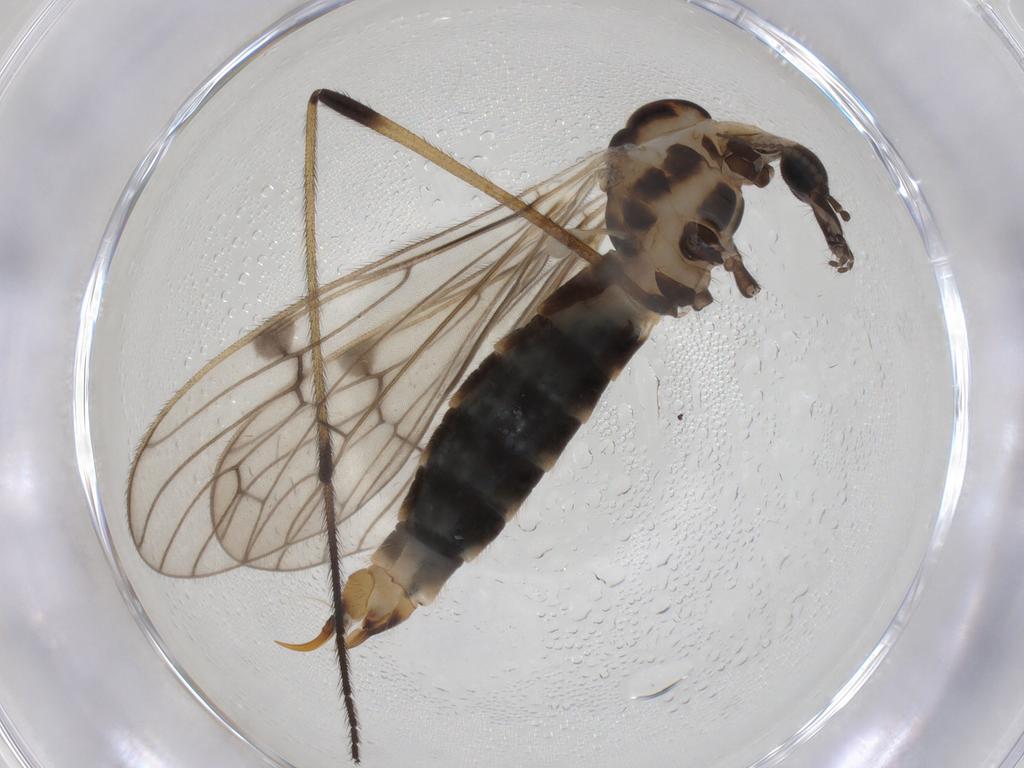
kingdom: Animalia
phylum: Arthropoda
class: Insecta
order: Diptera
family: Limoniidae
